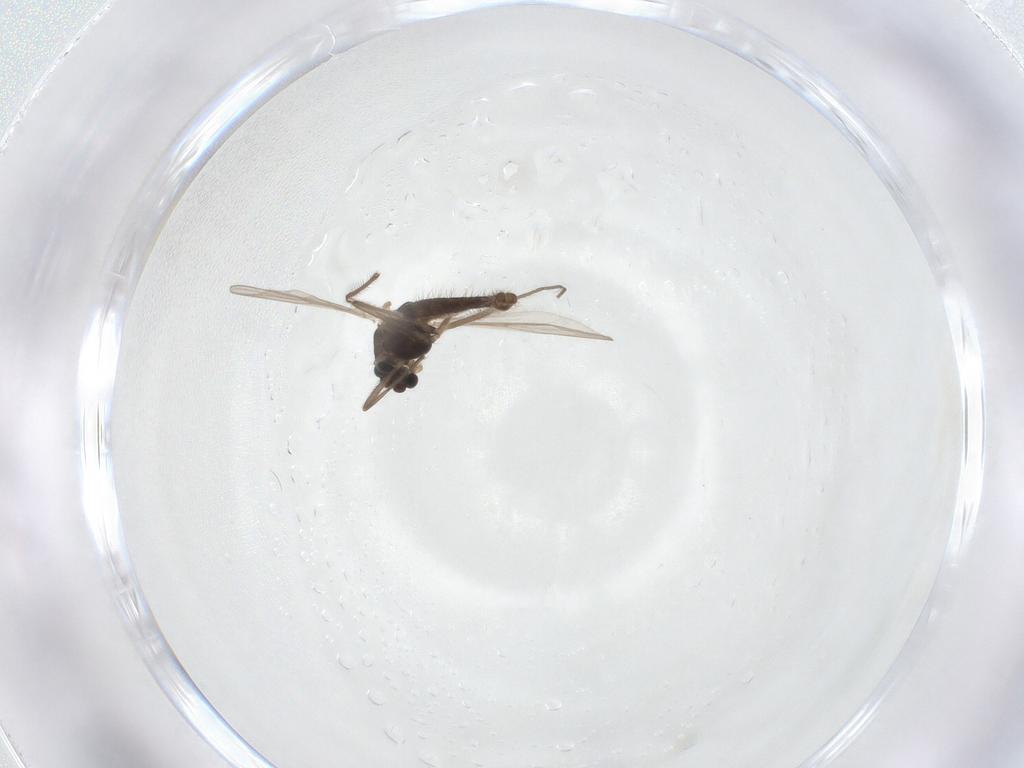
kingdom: Animalia
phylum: Arthropoda
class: Insecta
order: Diptera
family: Chironomidae
